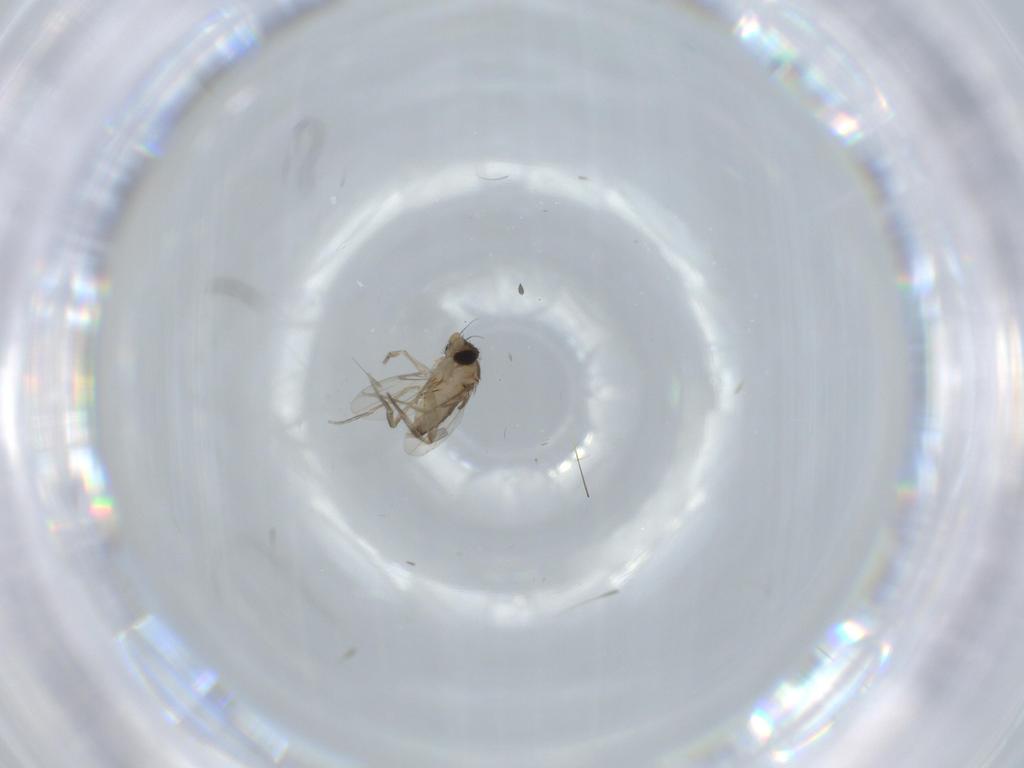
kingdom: Animalia
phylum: Arthropoda
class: Insecta
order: Diptera
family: Phoridae
